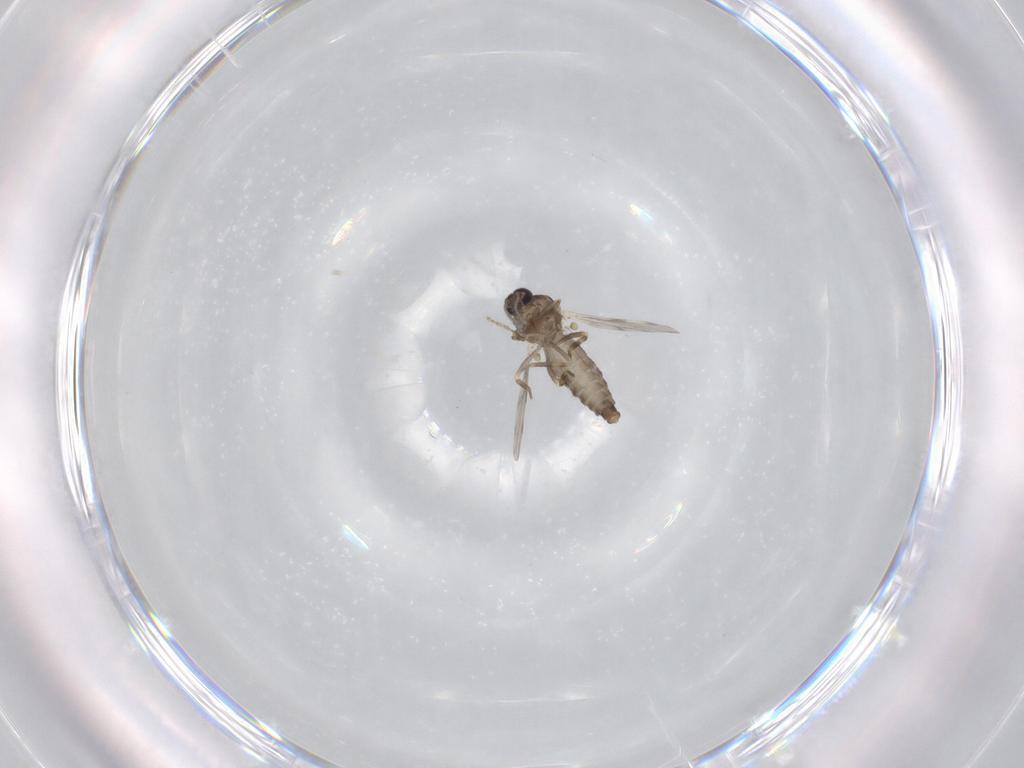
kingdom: Animalia
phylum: Arthropoda
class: Insecta
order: Diptera
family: Ceratopogonidae
